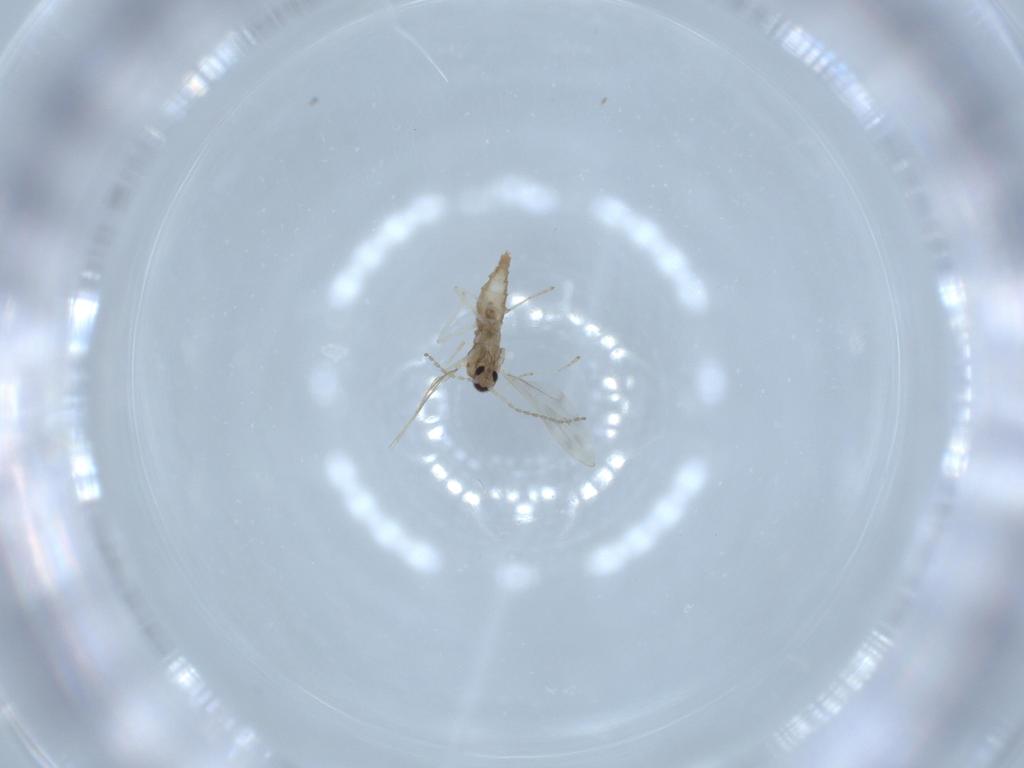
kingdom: Animalia
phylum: Arthropoda
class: Insecta
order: Diptera
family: Cecidomyiidae
